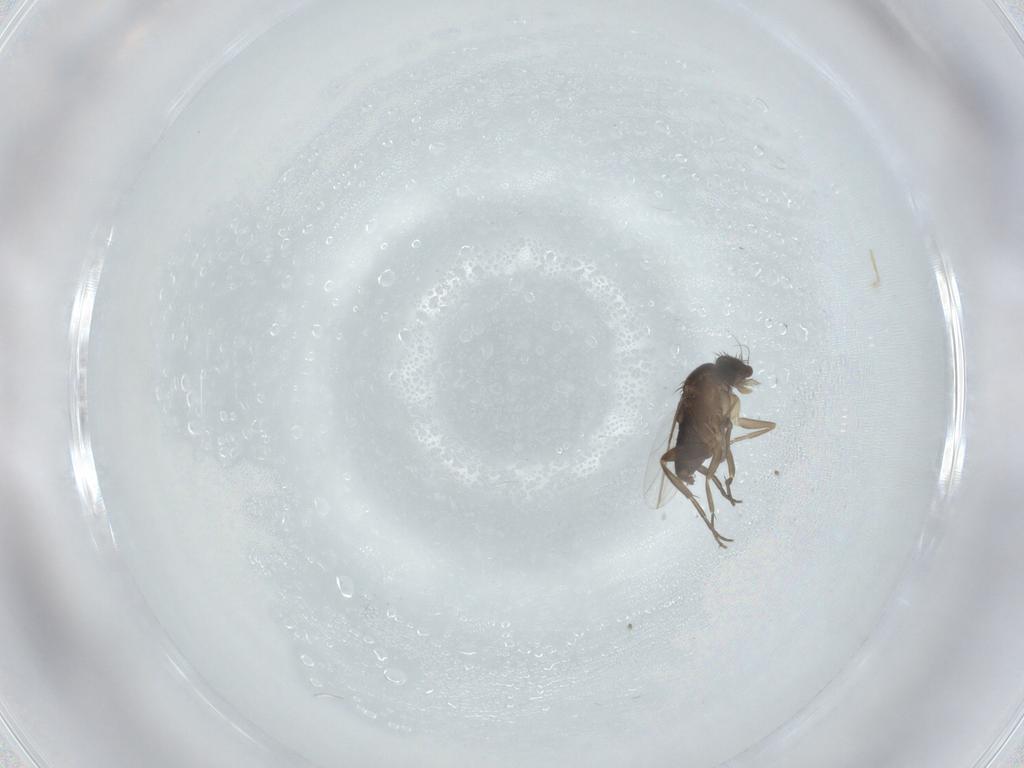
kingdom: Animalia
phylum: Arthropoda
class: Insecta
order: Diptera
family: Phoridae
